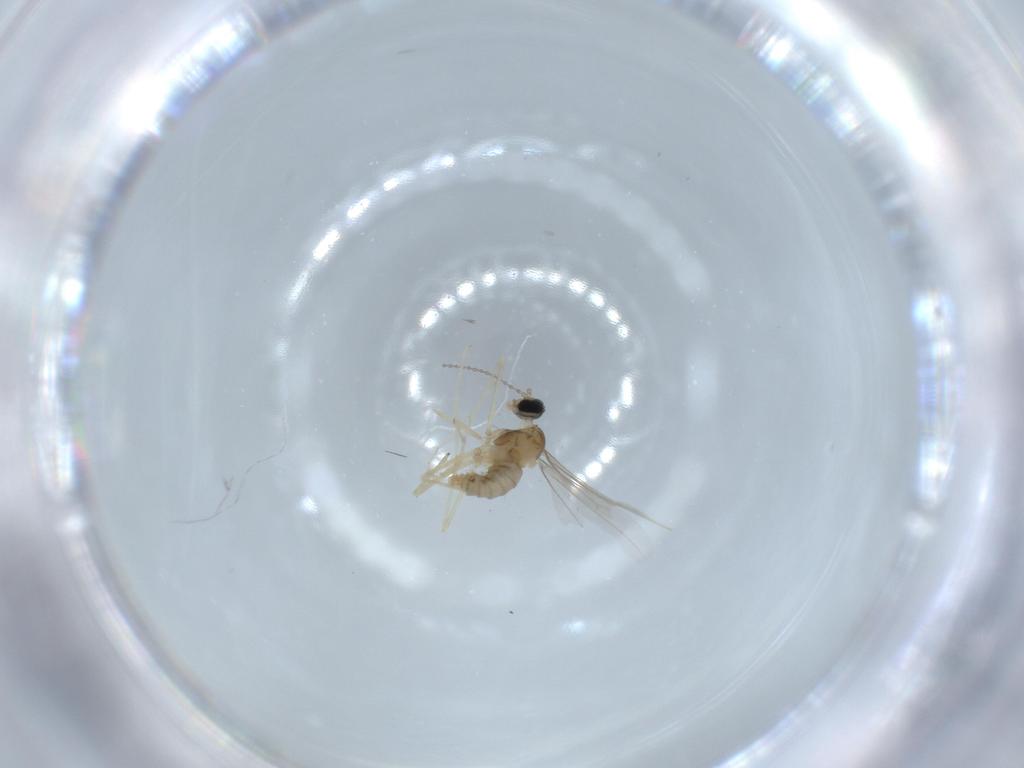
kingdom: Animalia
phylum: Arthropoda
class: Insecta
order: Diptera
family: Cecidomyiidae
